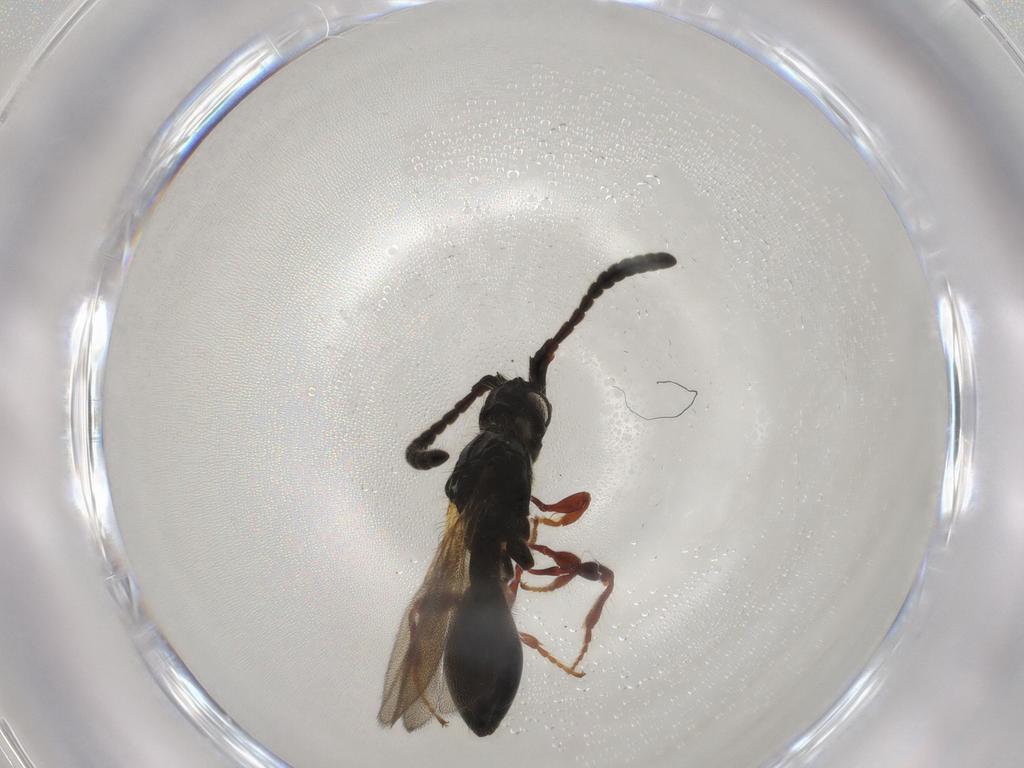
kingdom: Animalia
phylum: Arthropoda
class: Insecta
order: Hymenoptera
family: Diapriidae
